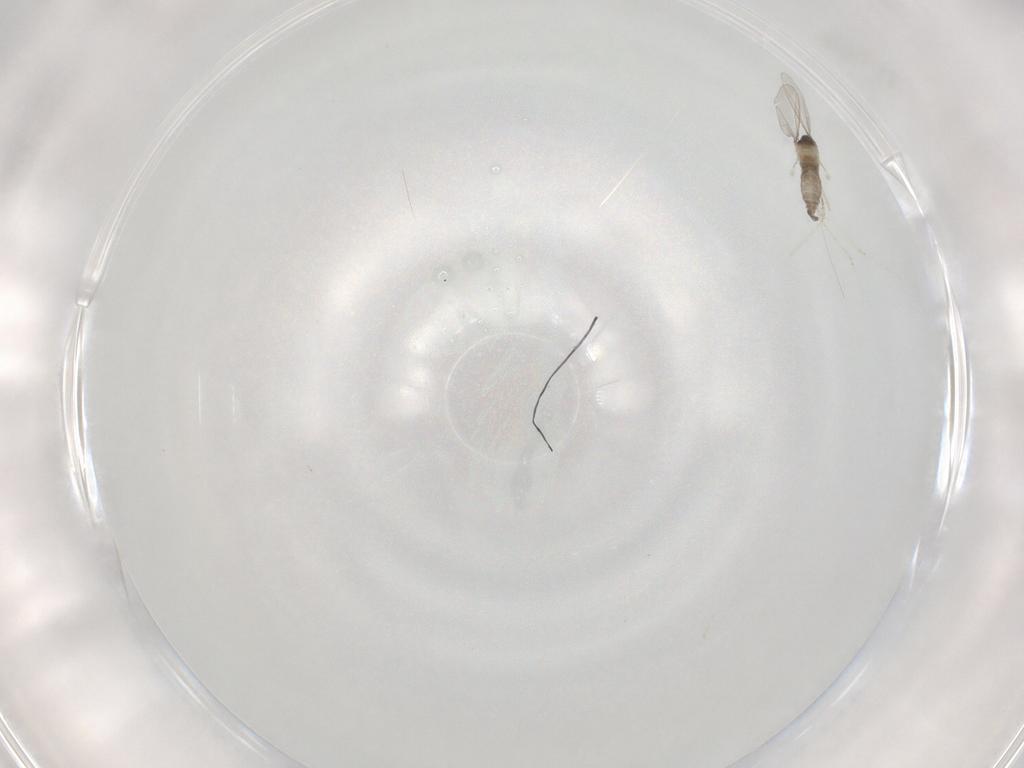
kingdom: Animalia
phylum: Arthropoda
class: Insecta
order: Diptera
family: Cecidomyiidae
